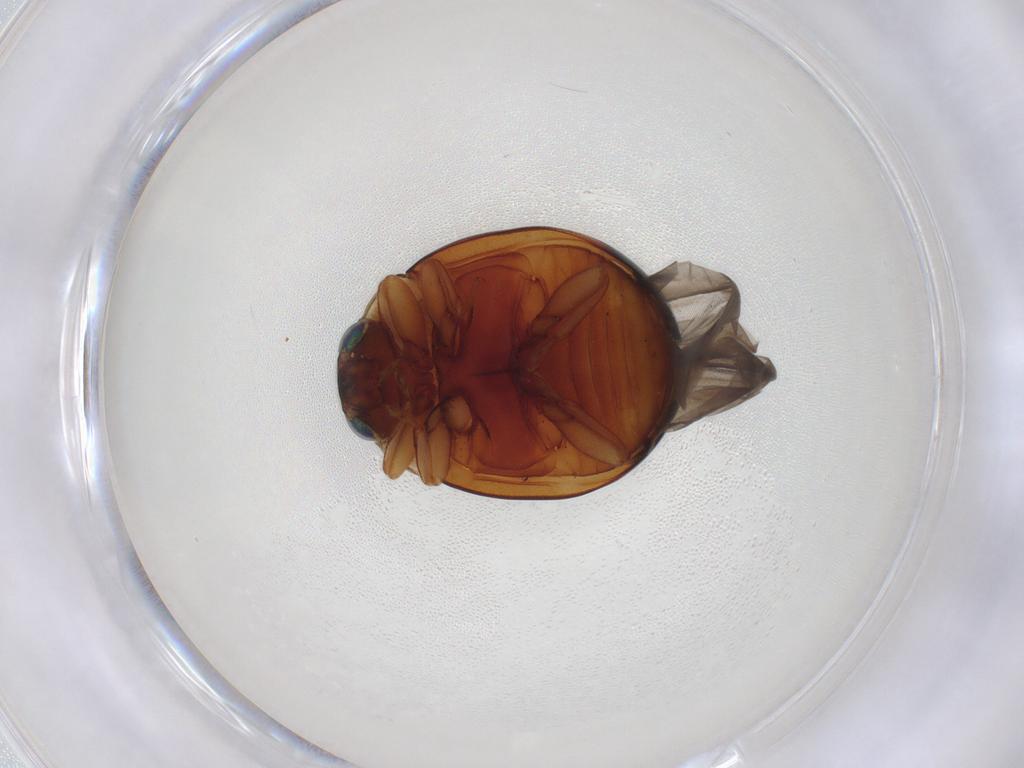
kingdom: Animalia
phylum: Arthropoda
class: Insecta
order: Coleoptera
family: Coccinellidae
